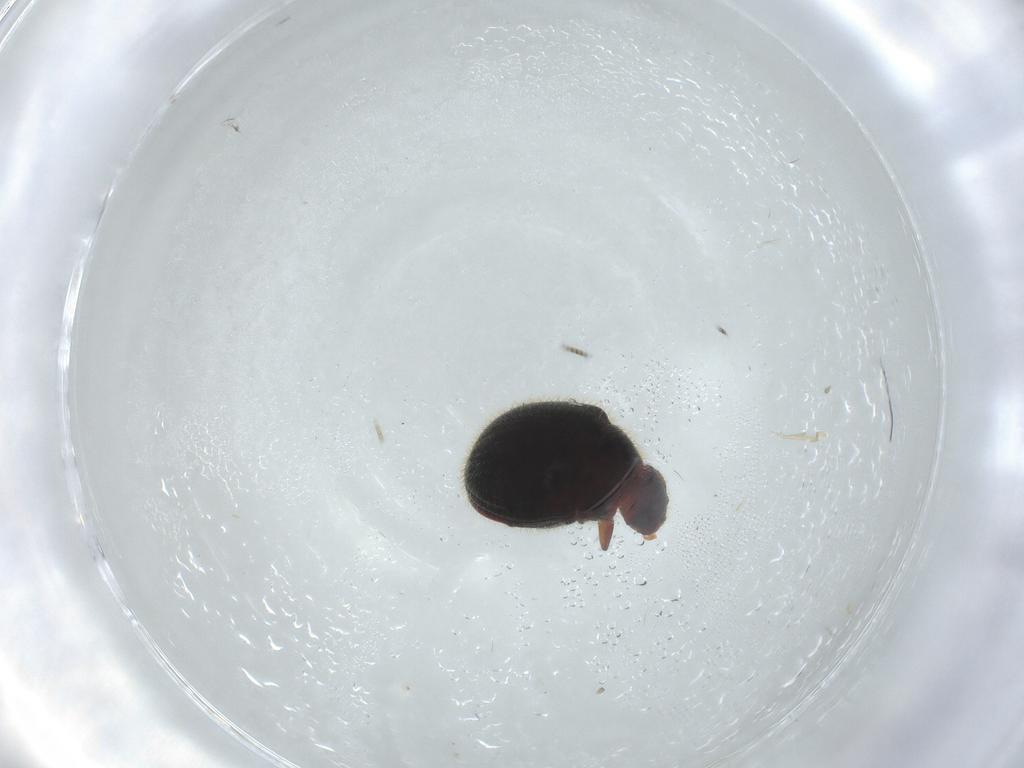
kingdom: Animalia
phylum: Arthropoda
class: Insecta
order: Coleoptera
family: Ptinidae
